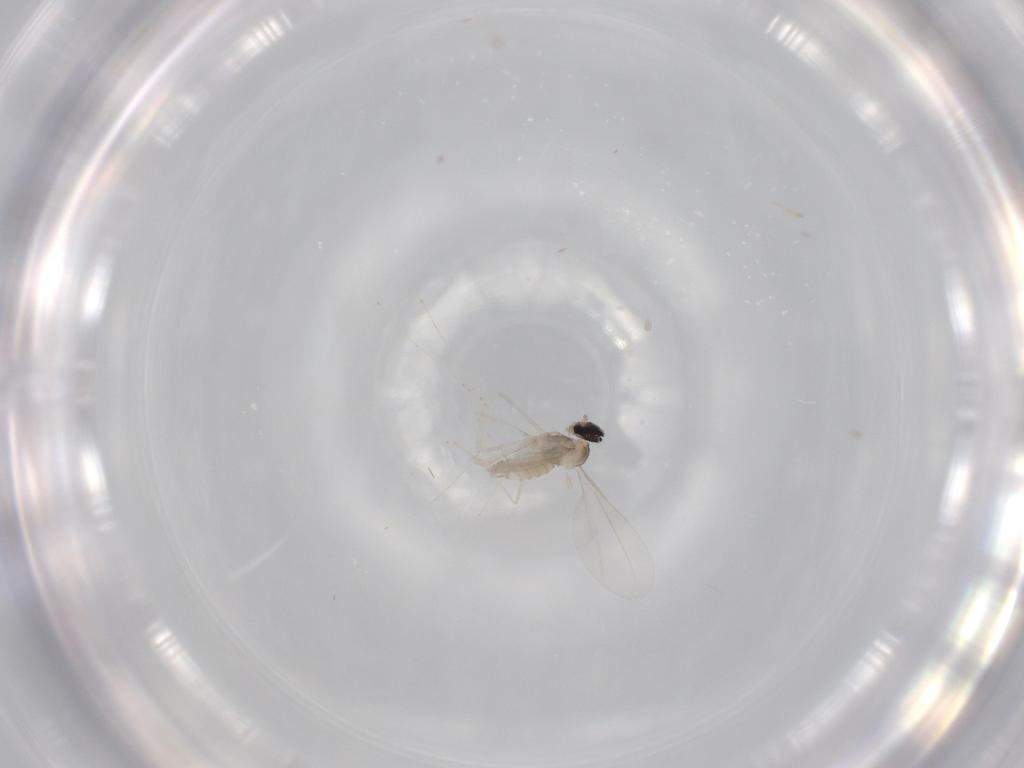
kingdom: Animalia
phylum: Arthropoda
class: Insecta
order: Diptera
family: Cecidomyiidae
